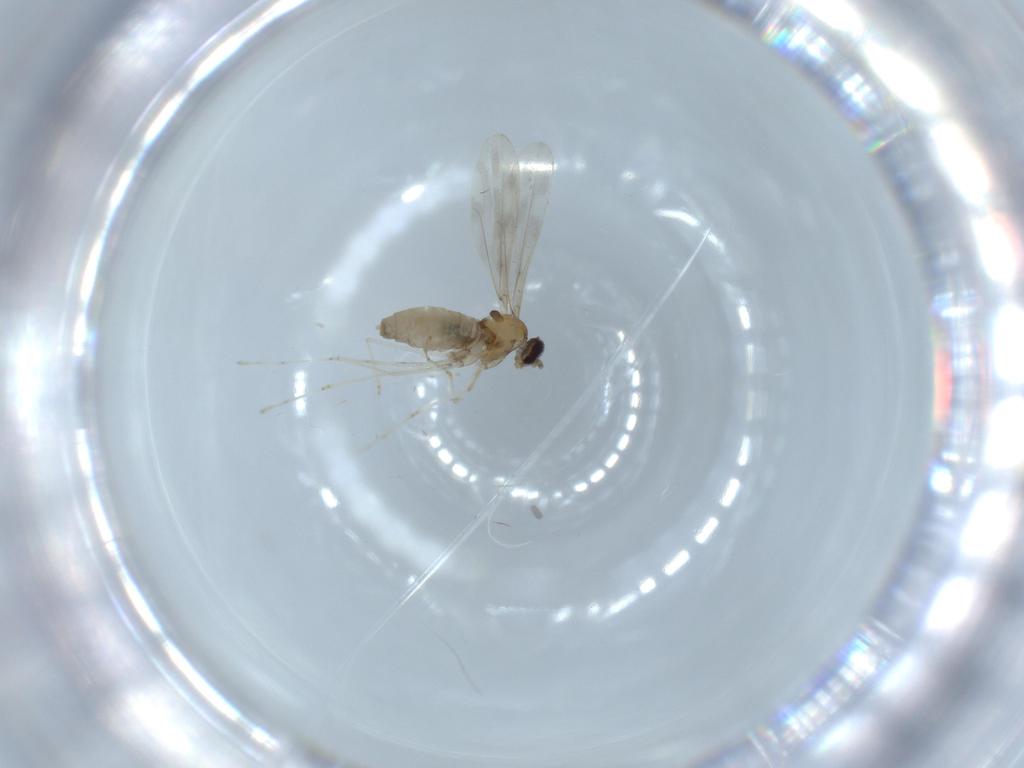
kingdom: Animalia
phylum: Arthropoda
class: Insecta
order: Diptera
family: Cecidomyiidae
